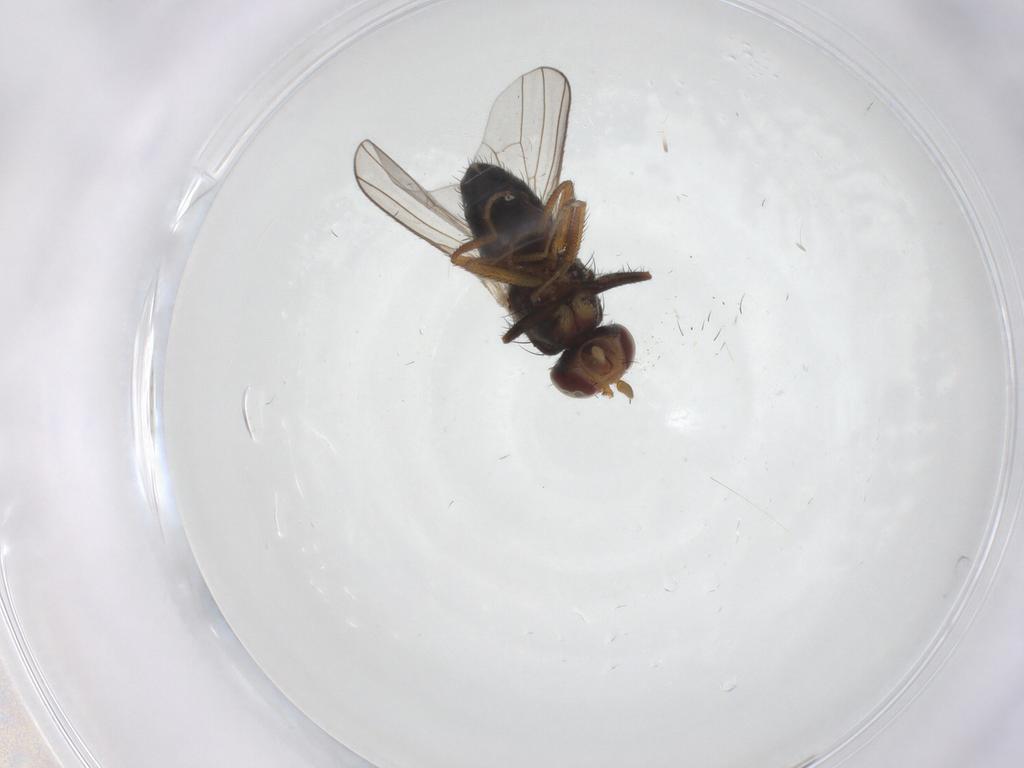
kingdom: Animalia
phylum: Arthropoda
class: Insecta
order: Diptera
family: Heleomyzidae
